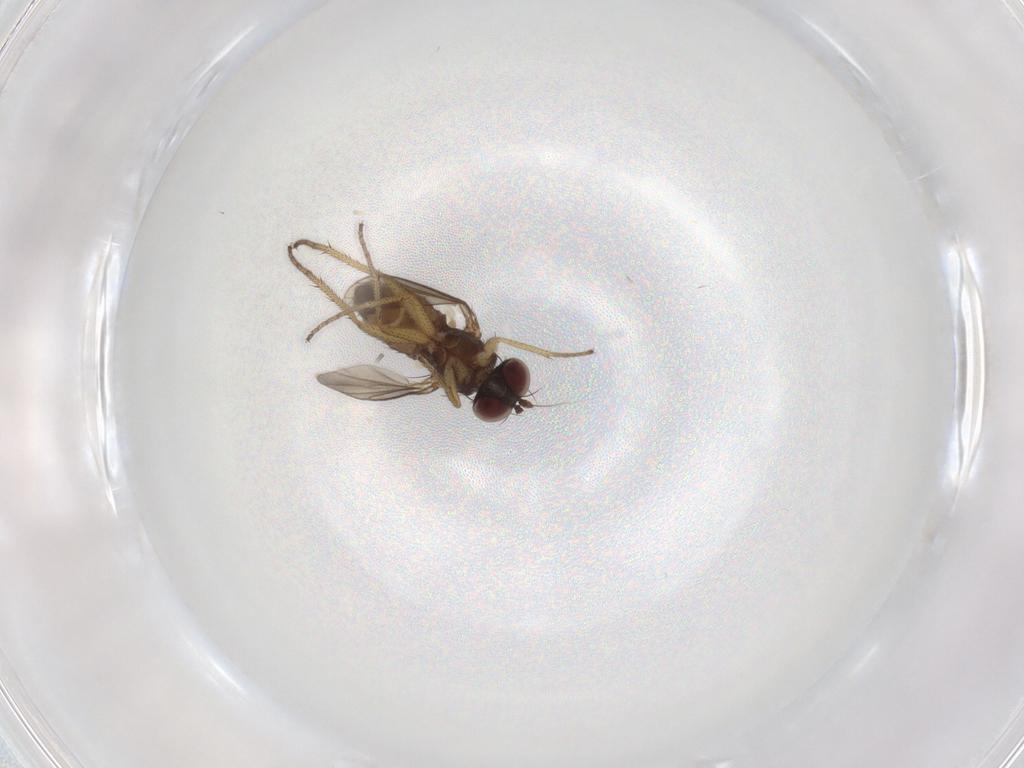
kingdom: Animalia
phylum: Arthropoda
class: Insecta
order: Diptera
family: Dolichopodidae
